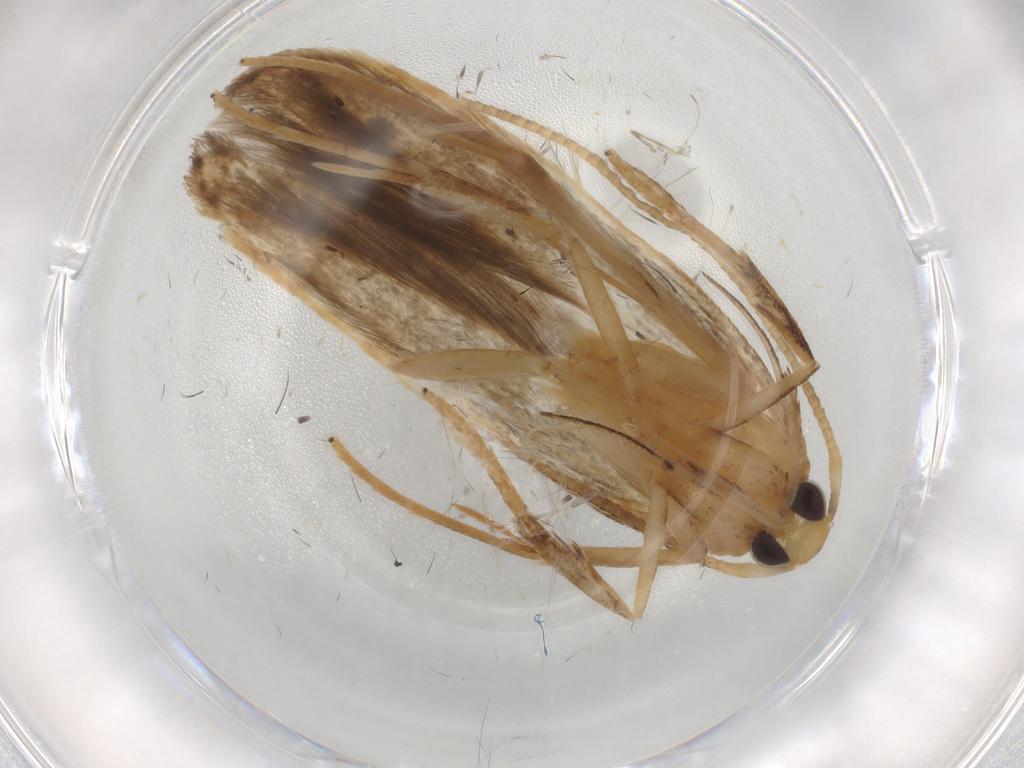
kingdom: Animalia
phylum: Arthropoda
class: Insecta
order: Lepidoptera
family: Coleophoridae
